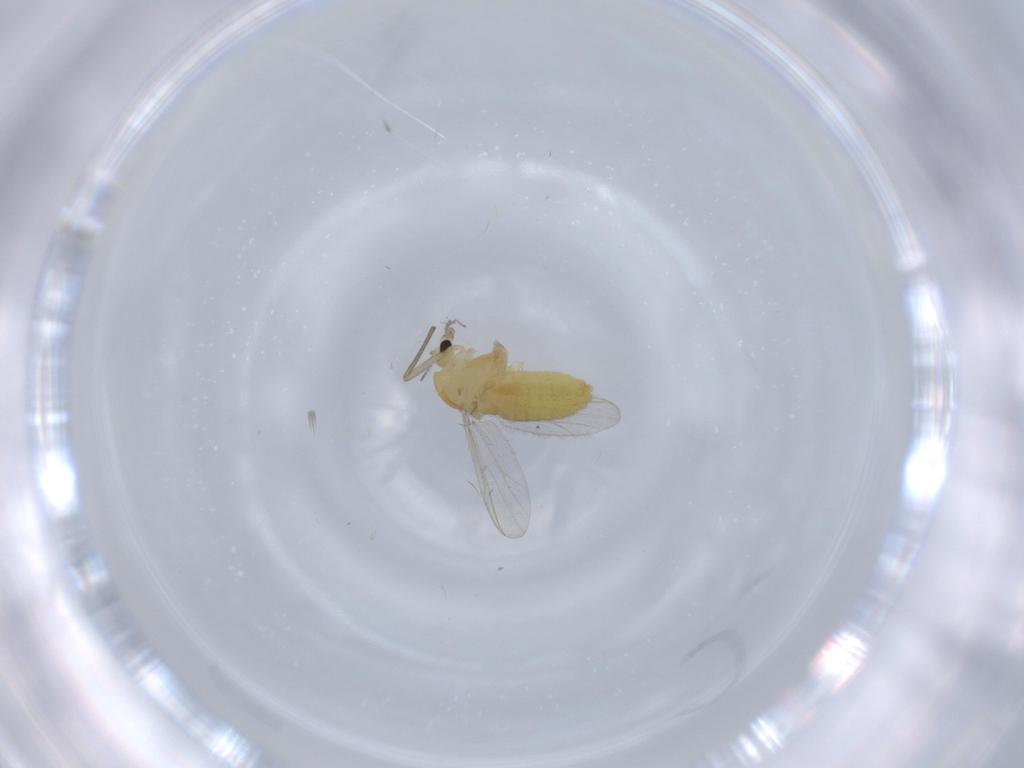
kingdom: Animalia
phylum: Arthropoda
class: Insecta
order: Diptera
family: Chironomidae
